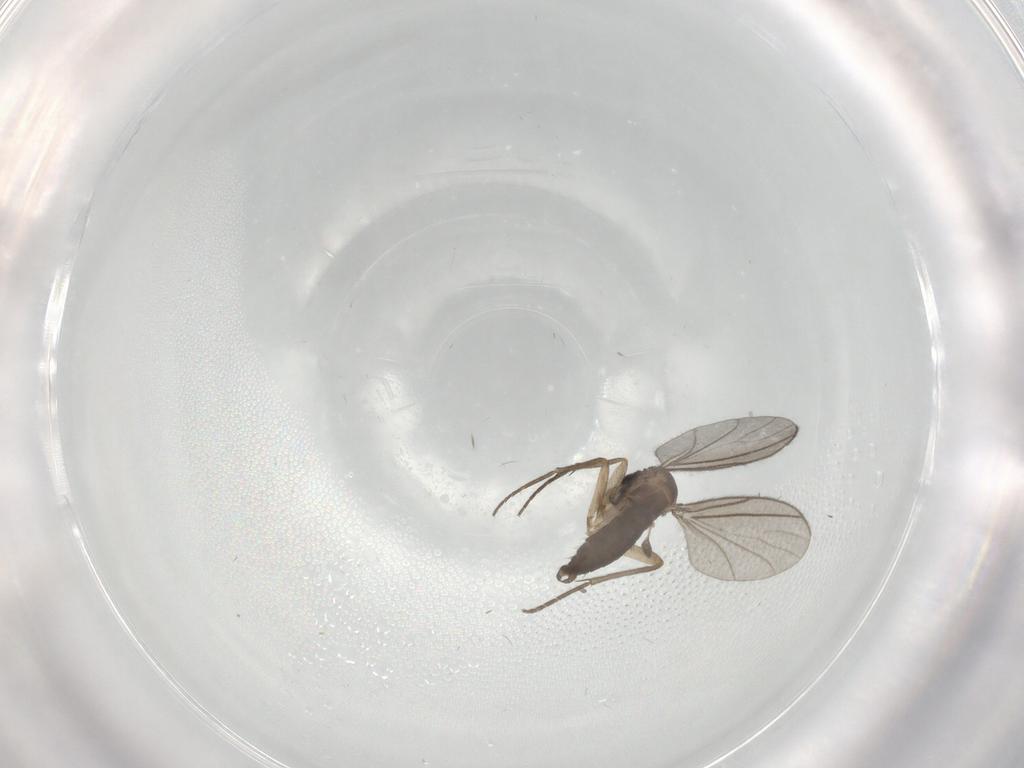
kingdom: Animalia
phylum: Arthropoda
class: Insecta
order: Diptera
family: Sciaridae
